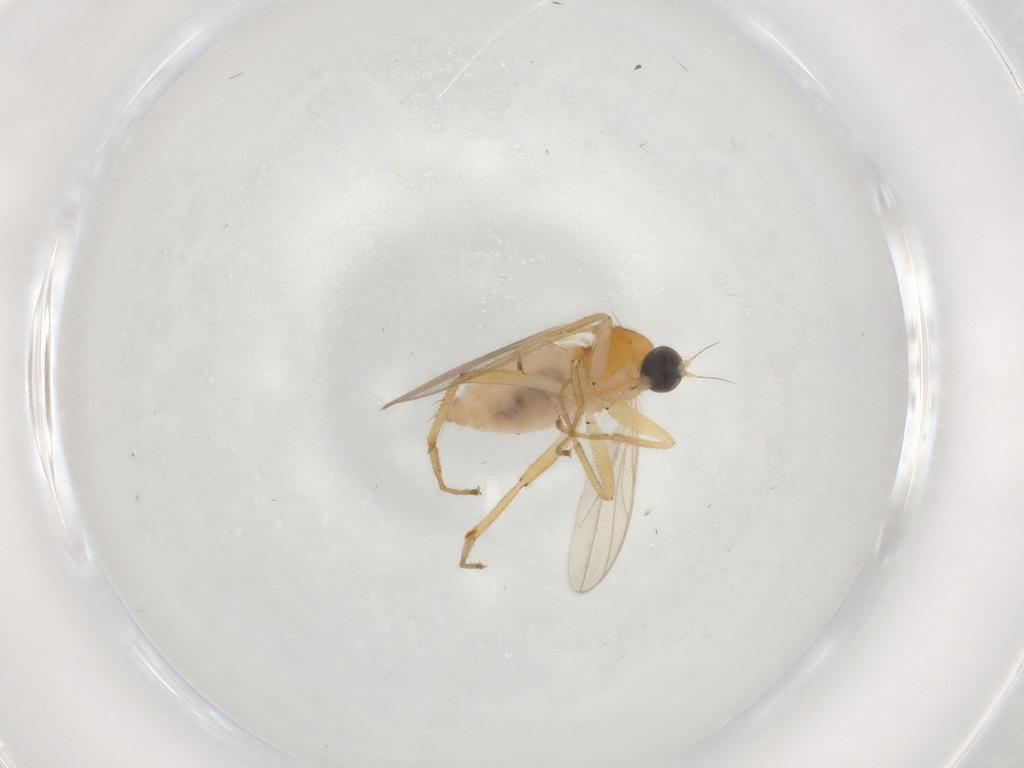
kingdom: Animalia
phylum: Arthropoda
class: Insecta
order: Diptera
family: Hybotidae
